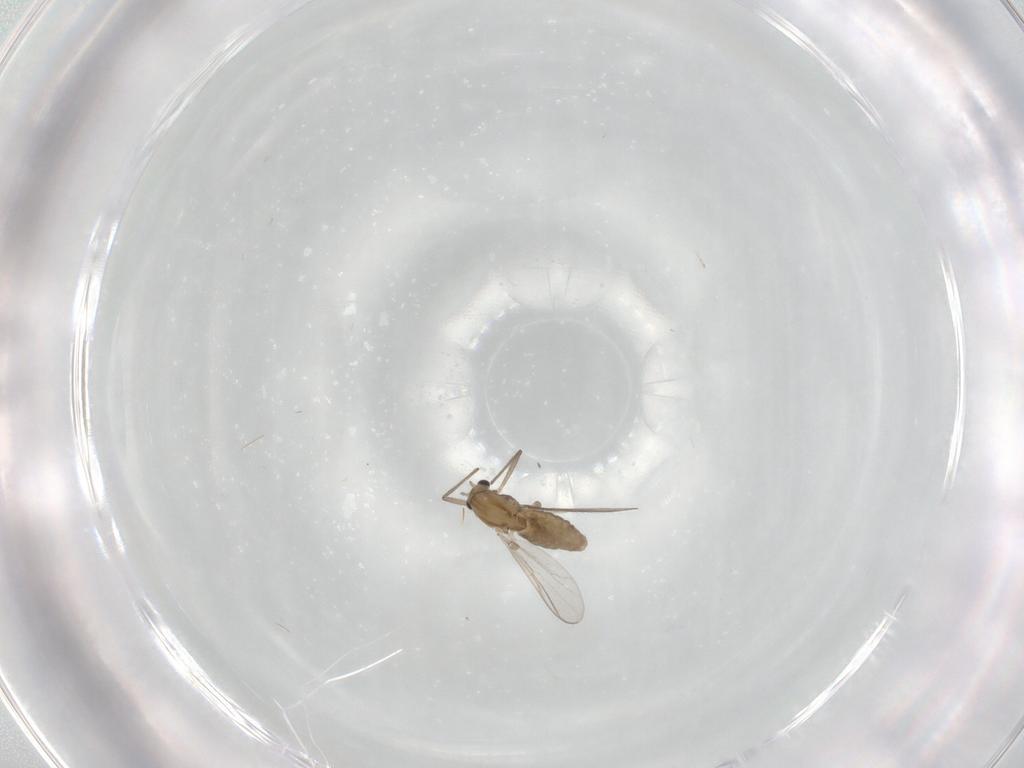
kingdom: Animalia
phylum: Arthropoda
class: Insecta
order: Diptera
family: Chironomidae
